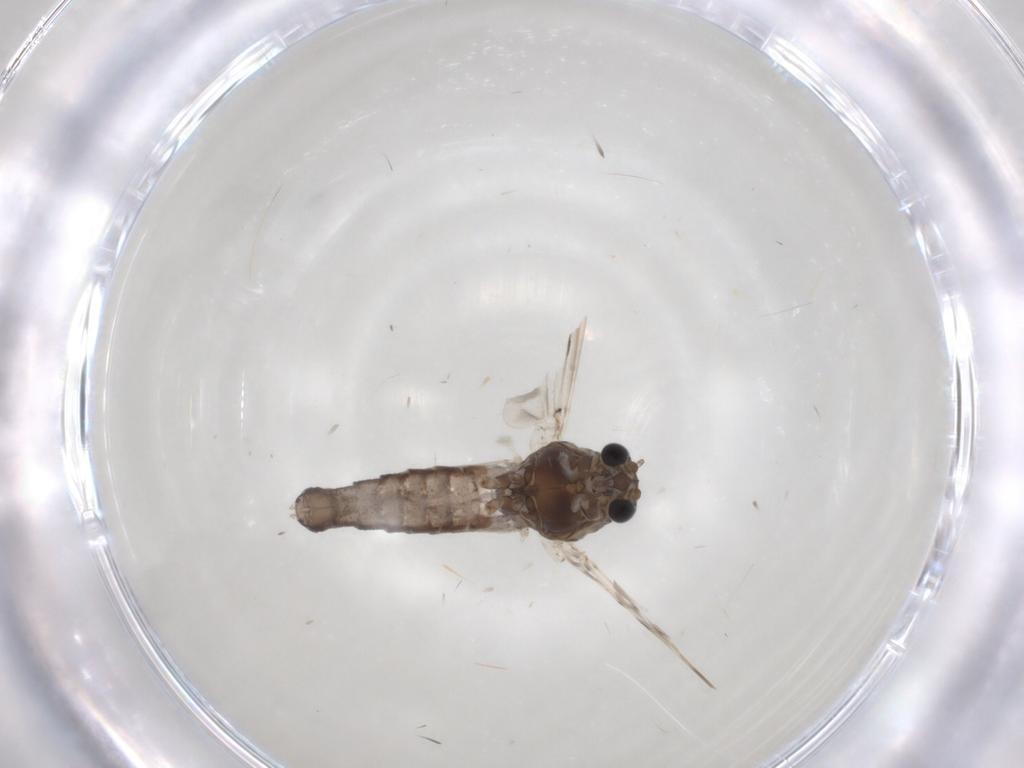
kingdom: Animalia
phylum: Arthropoda
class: Insecta
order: Diptera
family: Chironomidae
